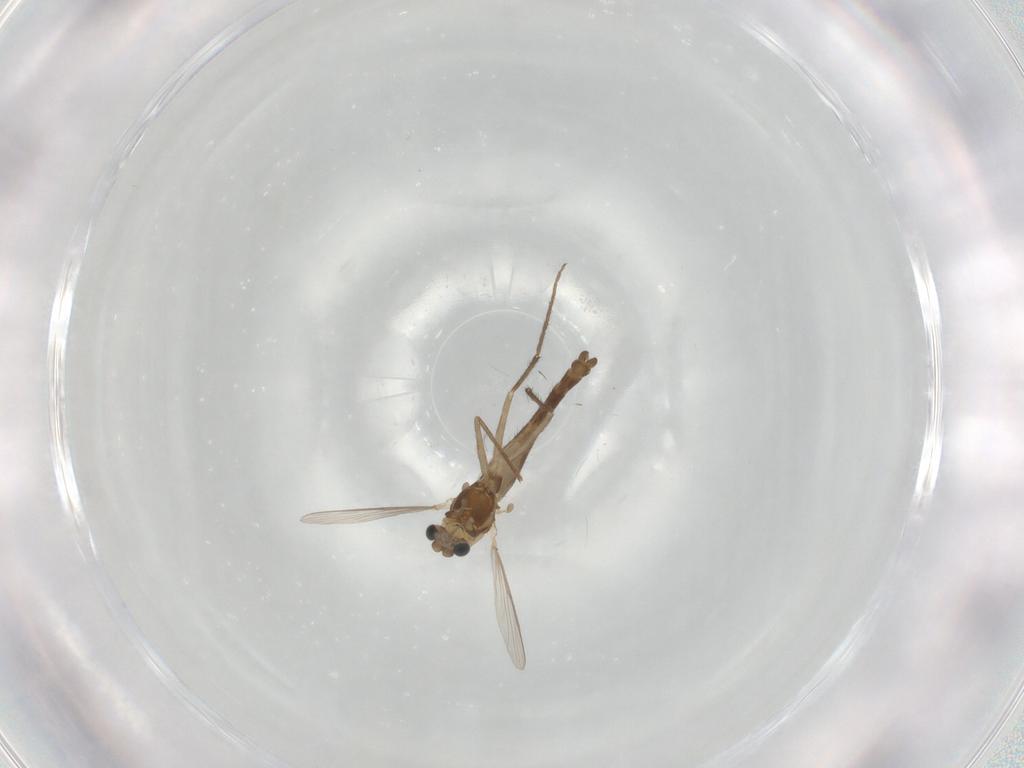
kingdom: Animalia
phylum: Arthropoda
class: Insecta
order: Diptera
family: Chironomidae
